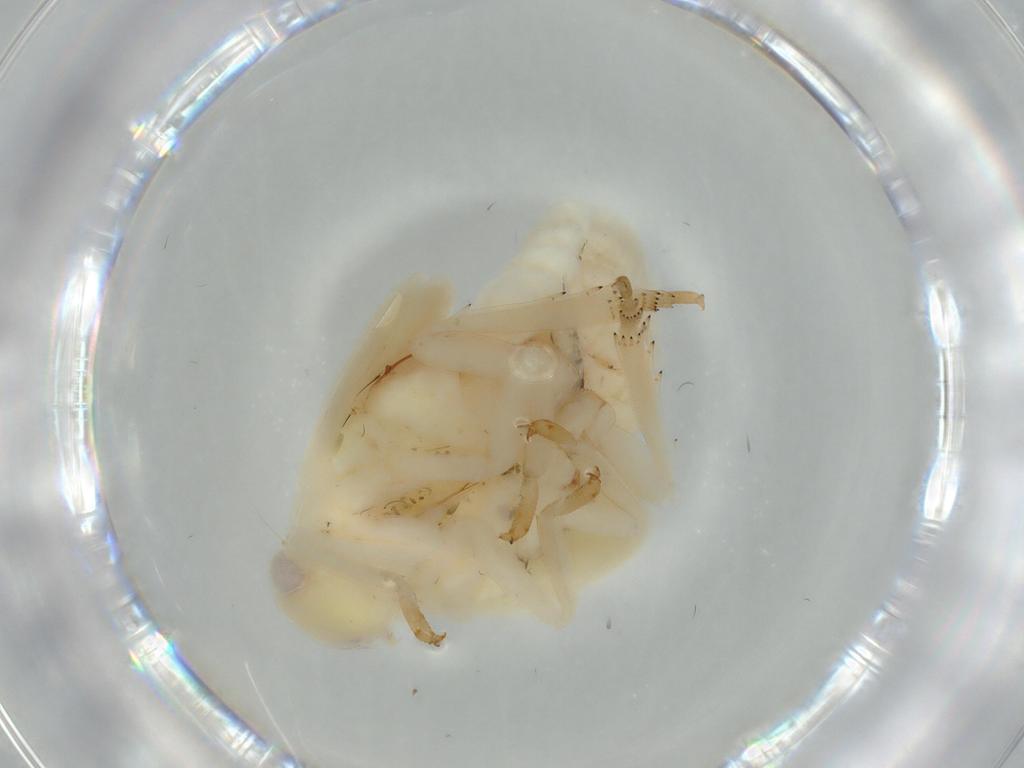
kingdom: Animalia
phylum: Arthropoda
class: Insecta
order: Hemiptera
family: Flatidae
